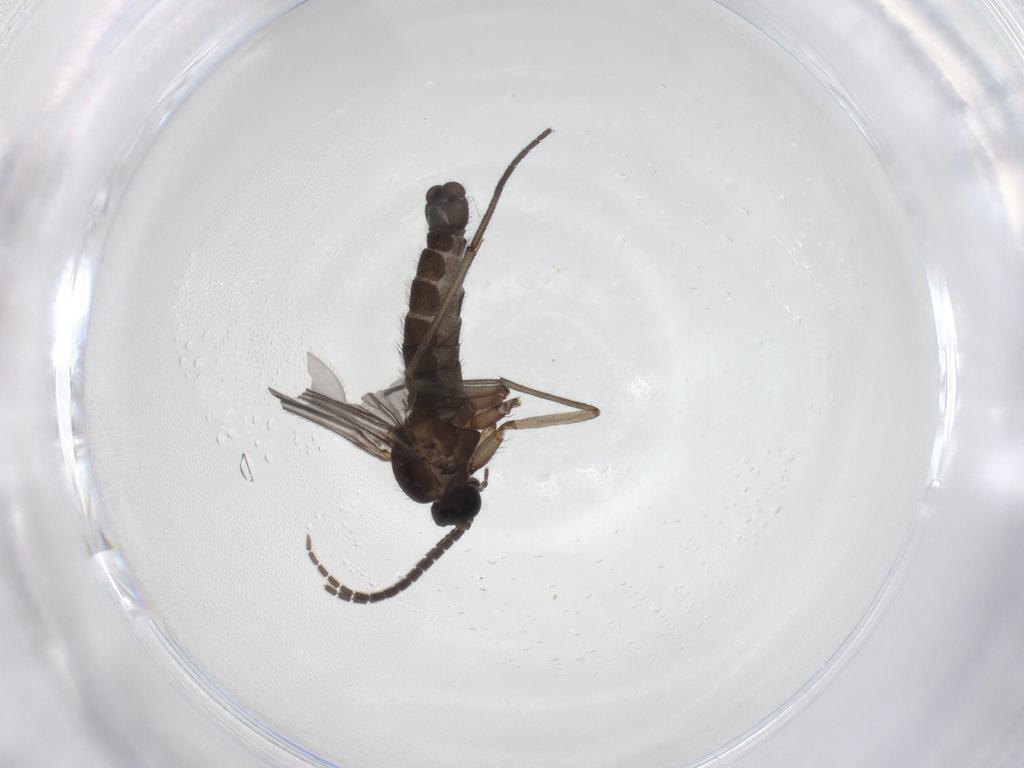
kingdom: Animalia
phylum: Arthropoda
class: Insecta
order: Diptera
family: Sciaridae
